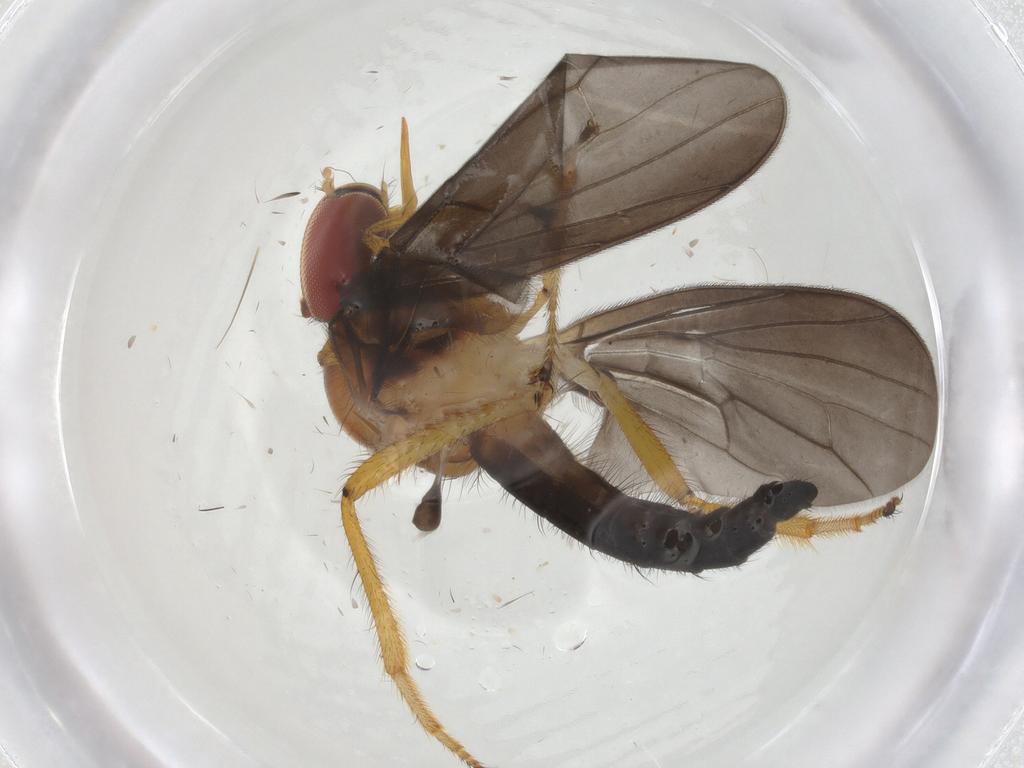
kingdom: Animalia
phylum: Arthropoda
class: Insecta
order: Diptera
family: Hybotidae
